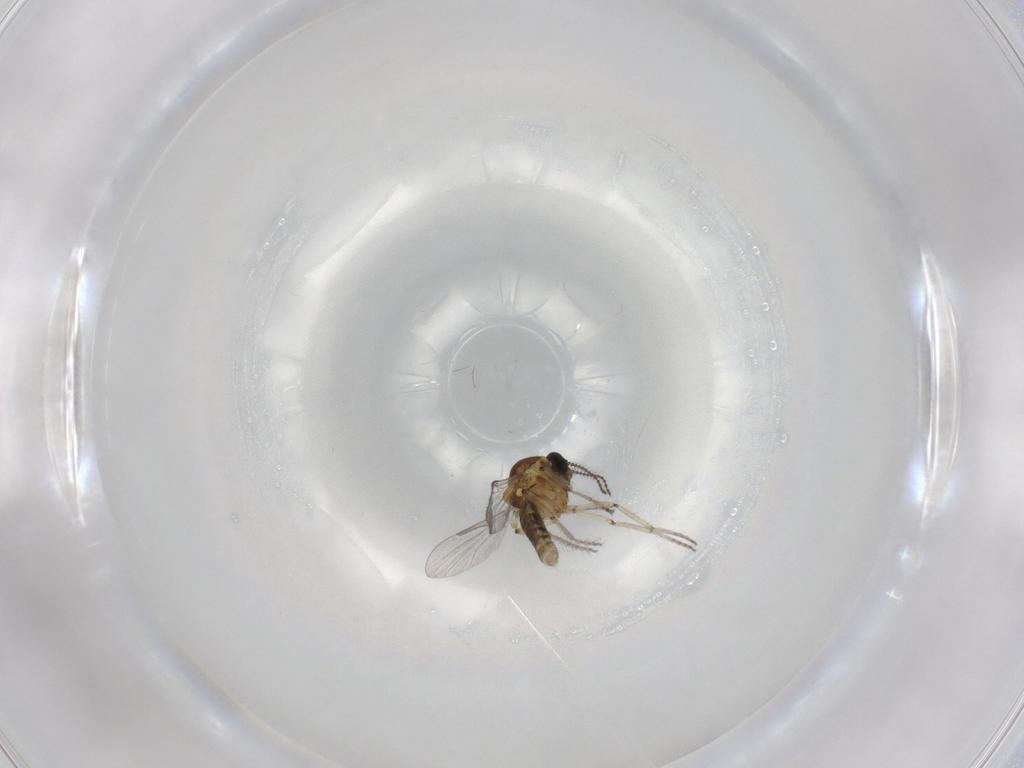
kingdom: Animalia
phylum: Arthropoda
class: Insecta
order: Diptera
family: Ceratopogonidae
